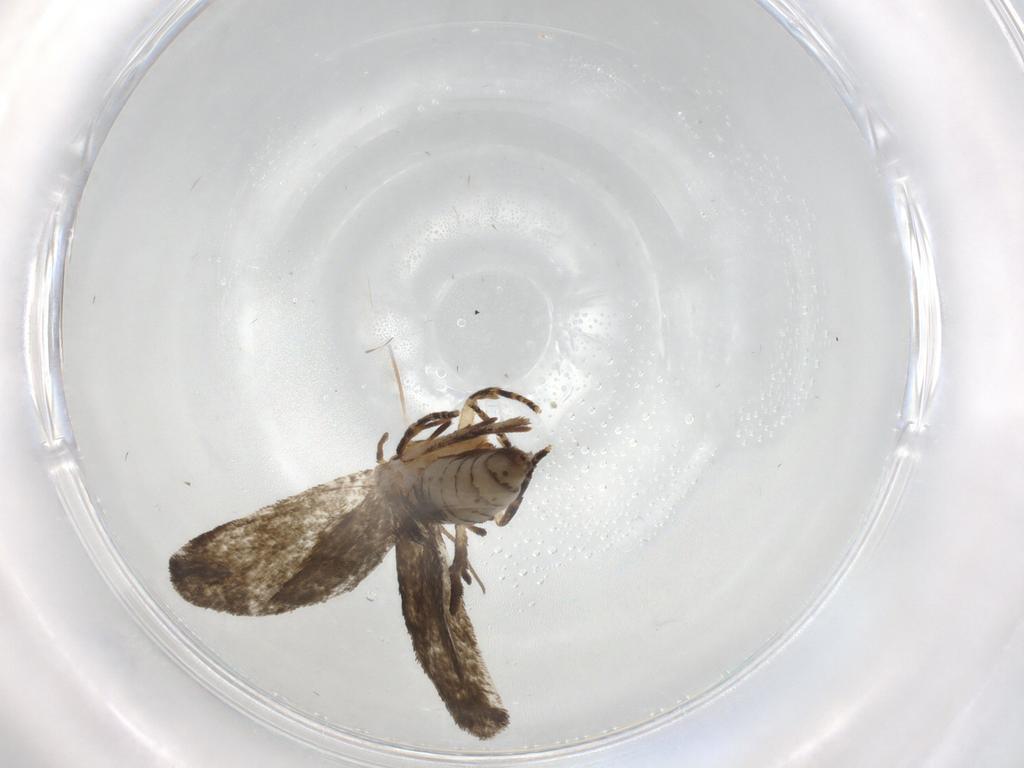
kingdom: Animalia
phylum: Arthropoda
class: Insecta
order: Lepidoptera
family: Crambidae
